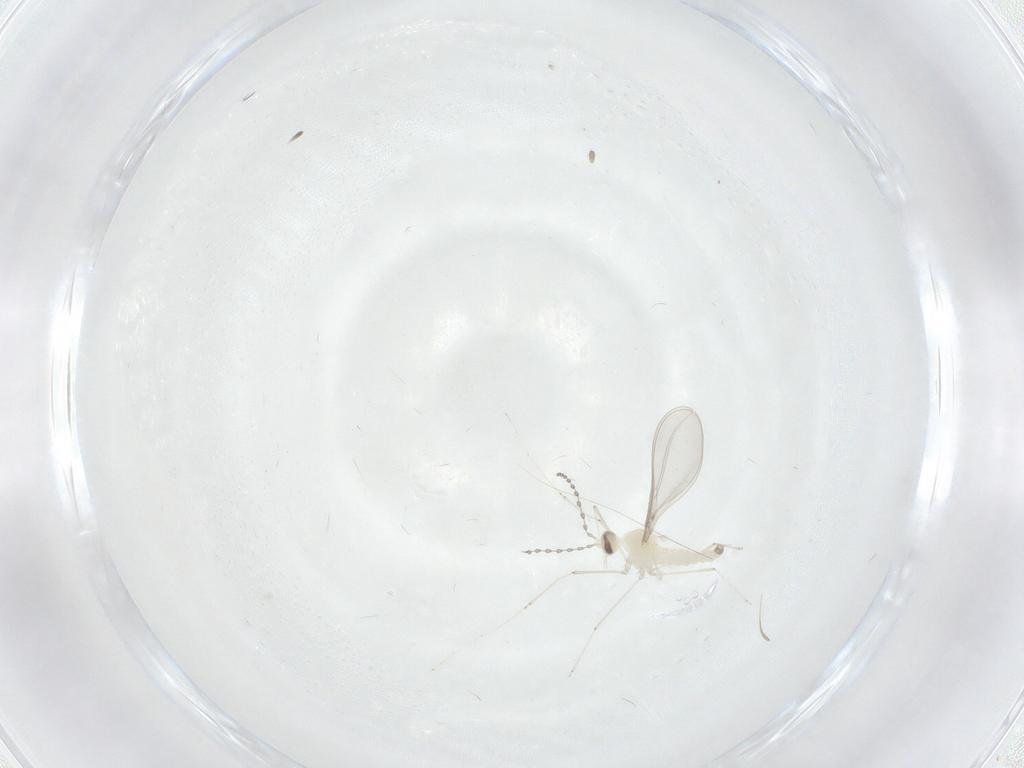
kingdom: Animalia
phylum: Arthropoda
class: Insecta
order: Diptera
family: Cecidomyiidae
